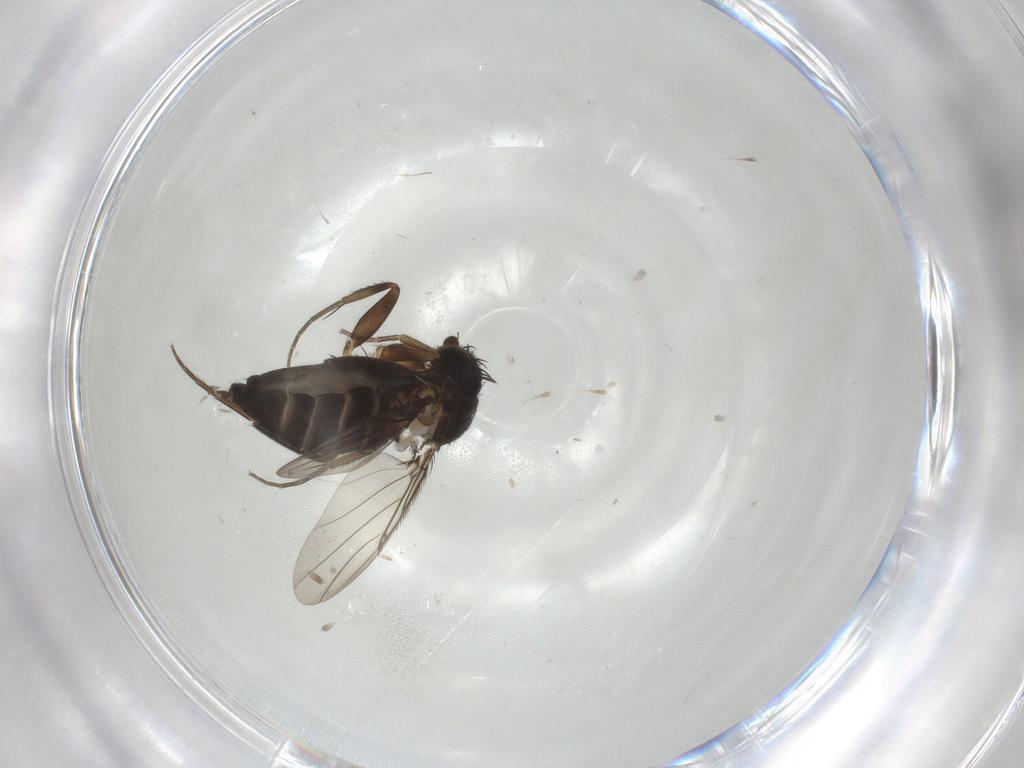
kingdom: Animalia
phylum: Arthropoda
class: Insecta
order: Diptera
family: Ceratopogonidae
